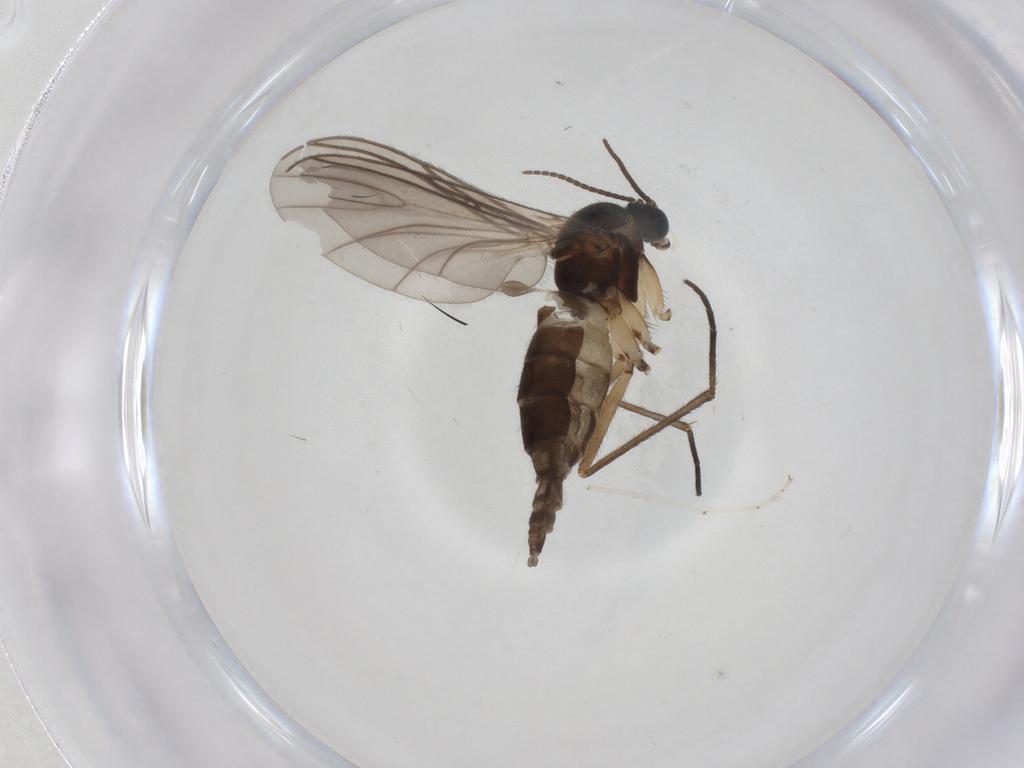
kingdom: Animalia
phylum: Arthropoda
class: Insecta
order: Diptera
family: Sciaridae
